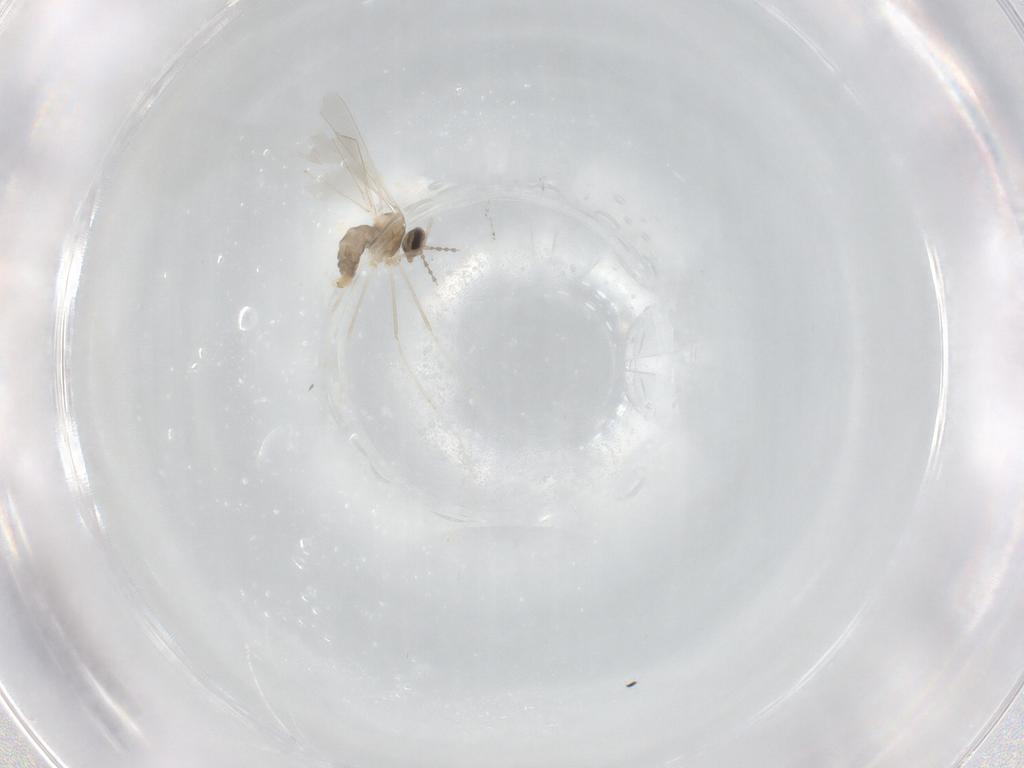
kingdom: Animalia
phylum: Arthropoda
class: Insecta
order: Diptera
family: Cecidomyiidae
